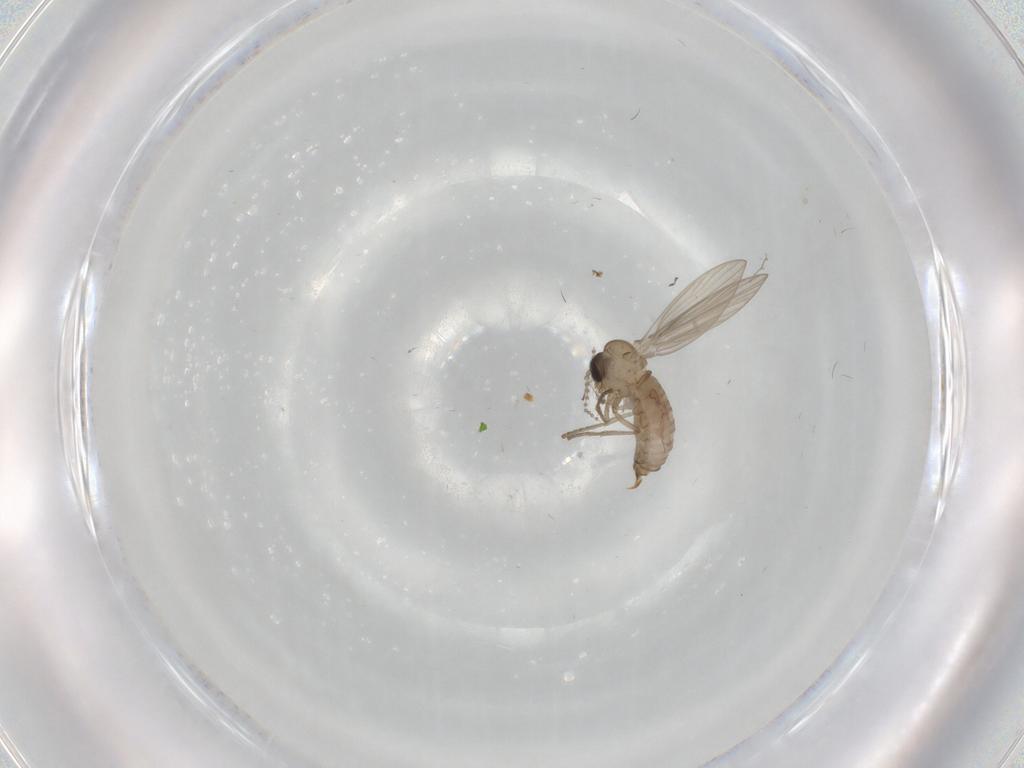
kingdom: Animalia
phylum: Arthropoda
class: Insecta
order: Diptera
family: Psychodidae
